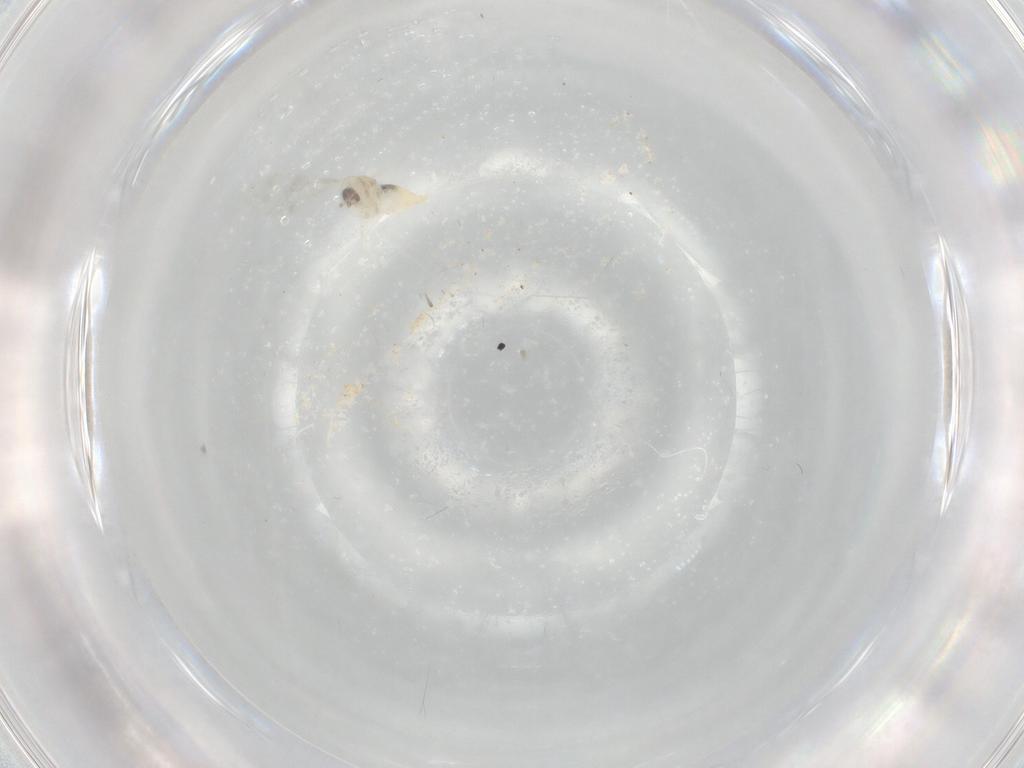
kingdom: Animalia
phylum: Arthropoda
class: Insecta
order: Diptera
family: Cecidomyiidae
